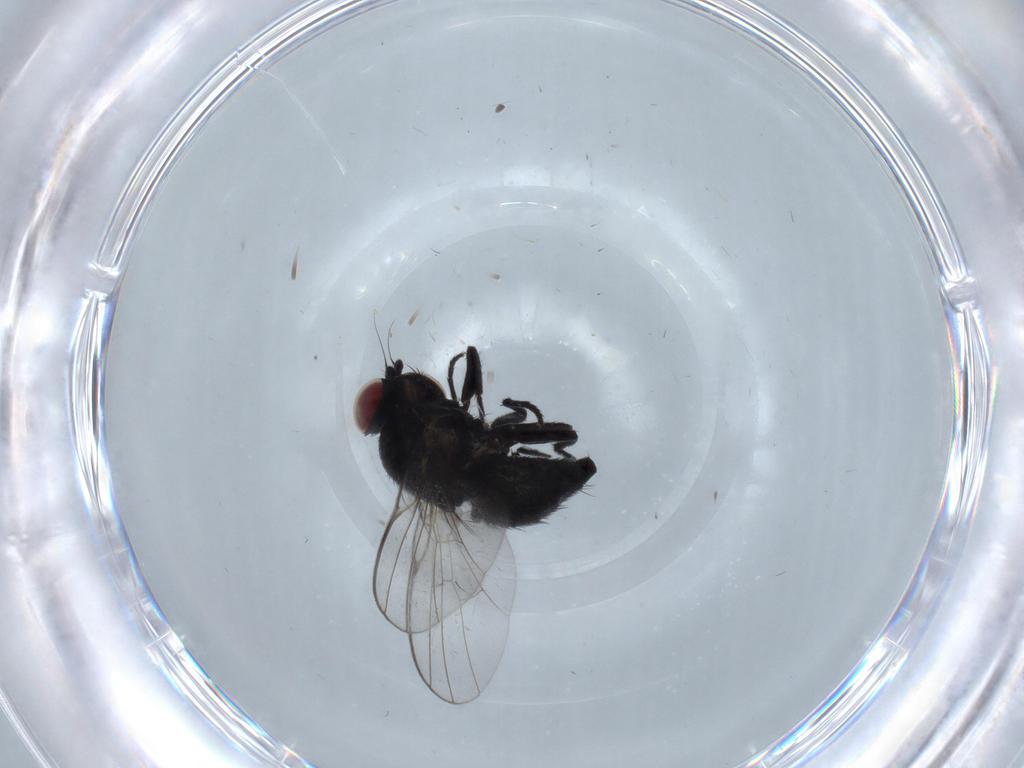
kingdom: Animalia
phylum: Arthropoda
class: Insecta
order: Diptera
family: Agromyzidae
